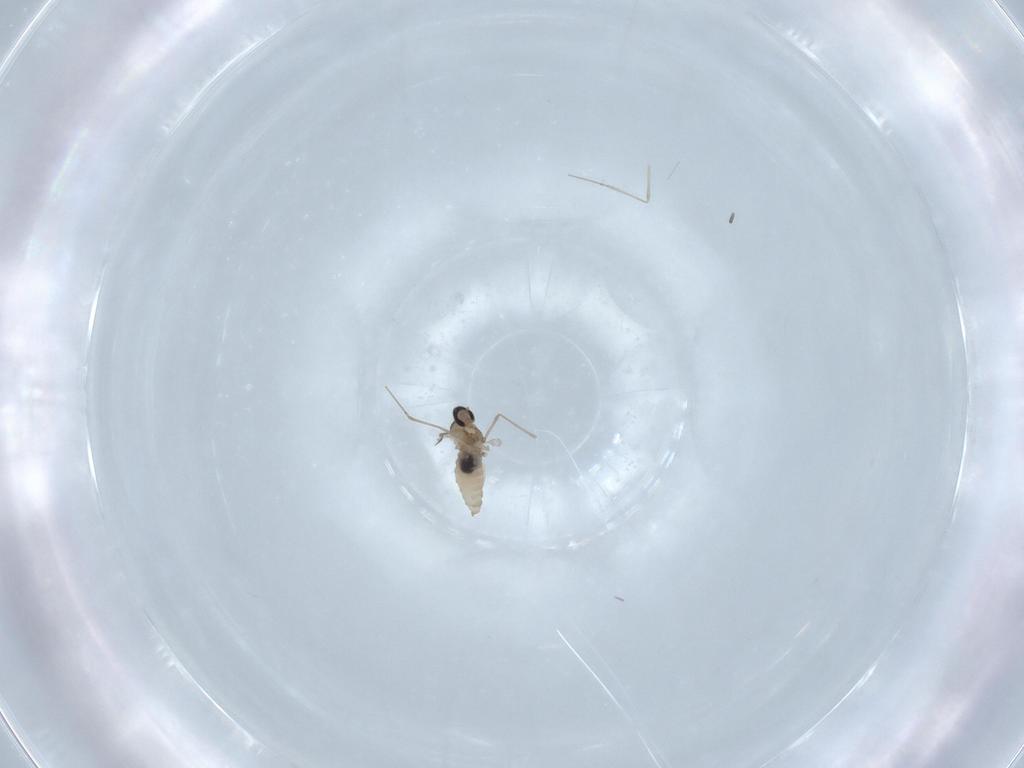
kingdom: Animalia
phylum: Arthropoda
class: Insecta
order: Diptera
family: Cecidomyiidae
